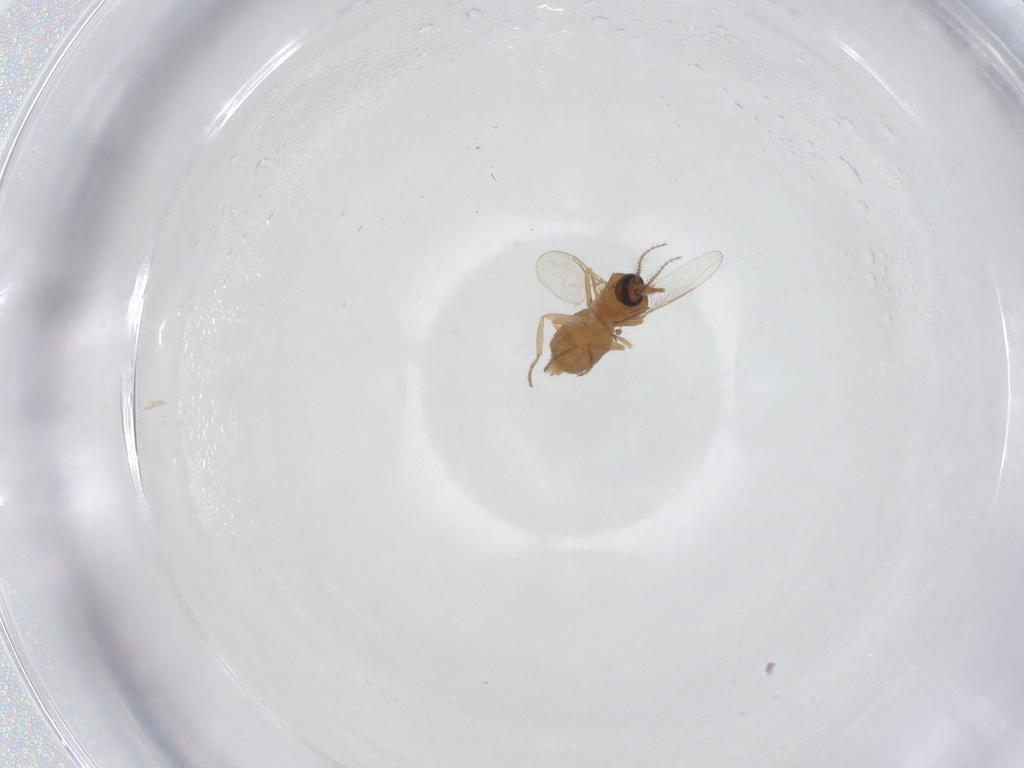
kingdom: Animalia
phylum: Arthropoda
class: Insecta
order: Diptera
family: Ceratopogonidae
